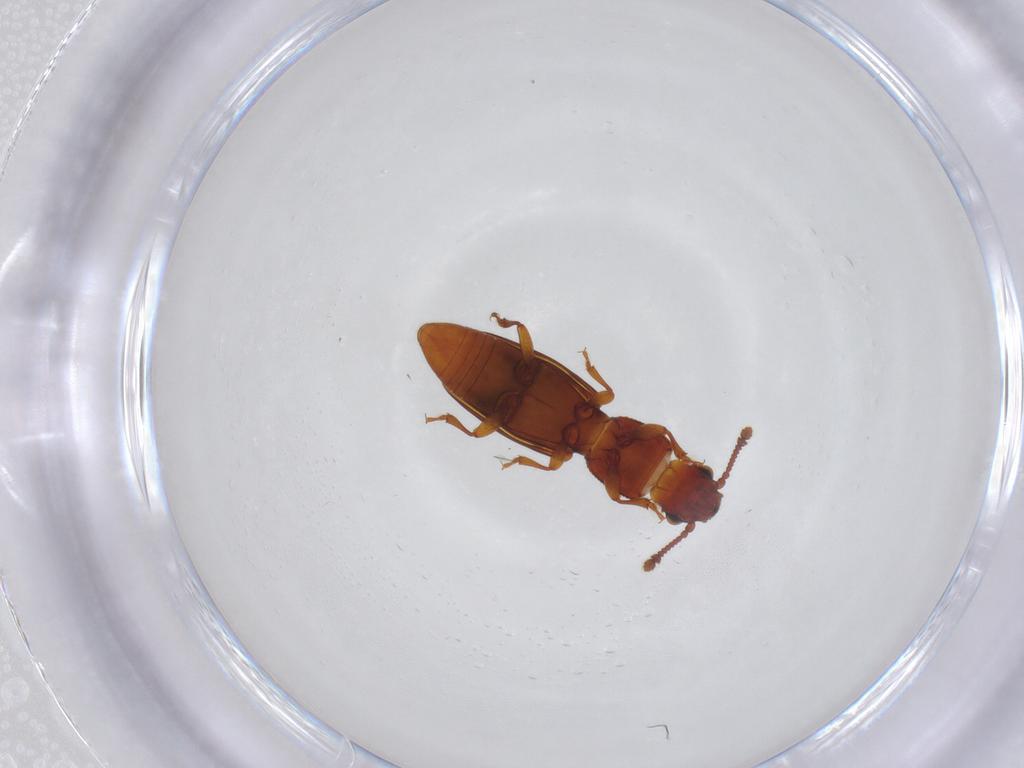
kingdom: Animalia
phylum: Arthropoda
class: Insecta
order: Coleoptera
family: Monotomidae
